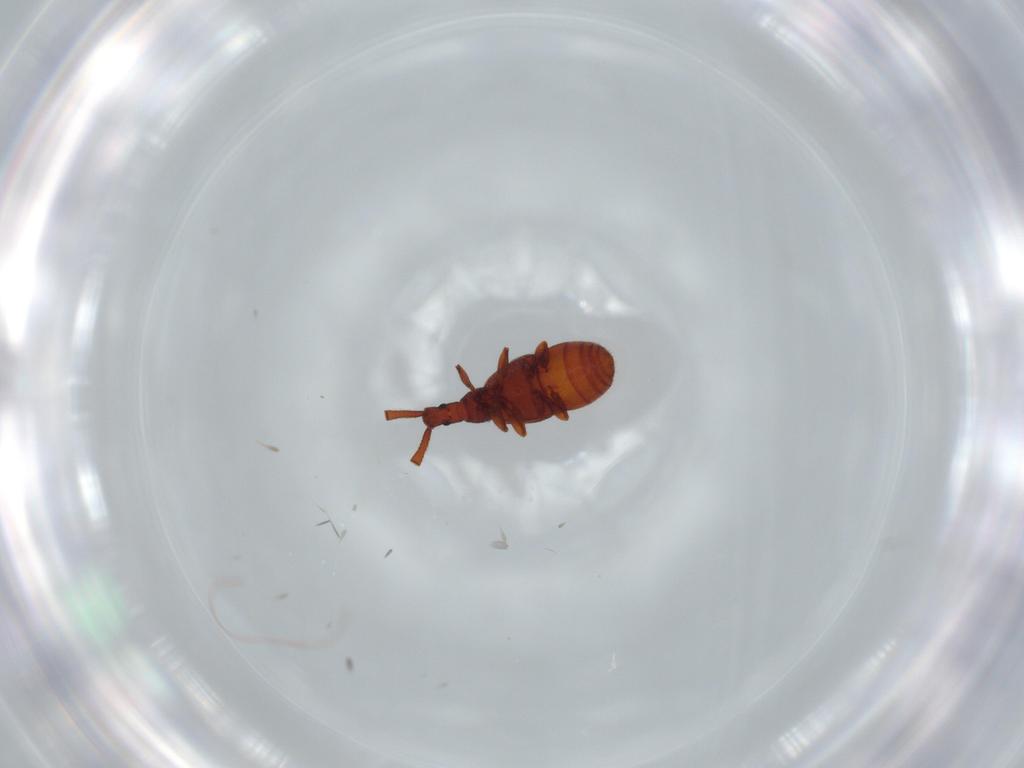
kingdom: Animalia
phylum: Arthropoda
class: Insecta
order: Coleoptera
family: Staphylinidae
